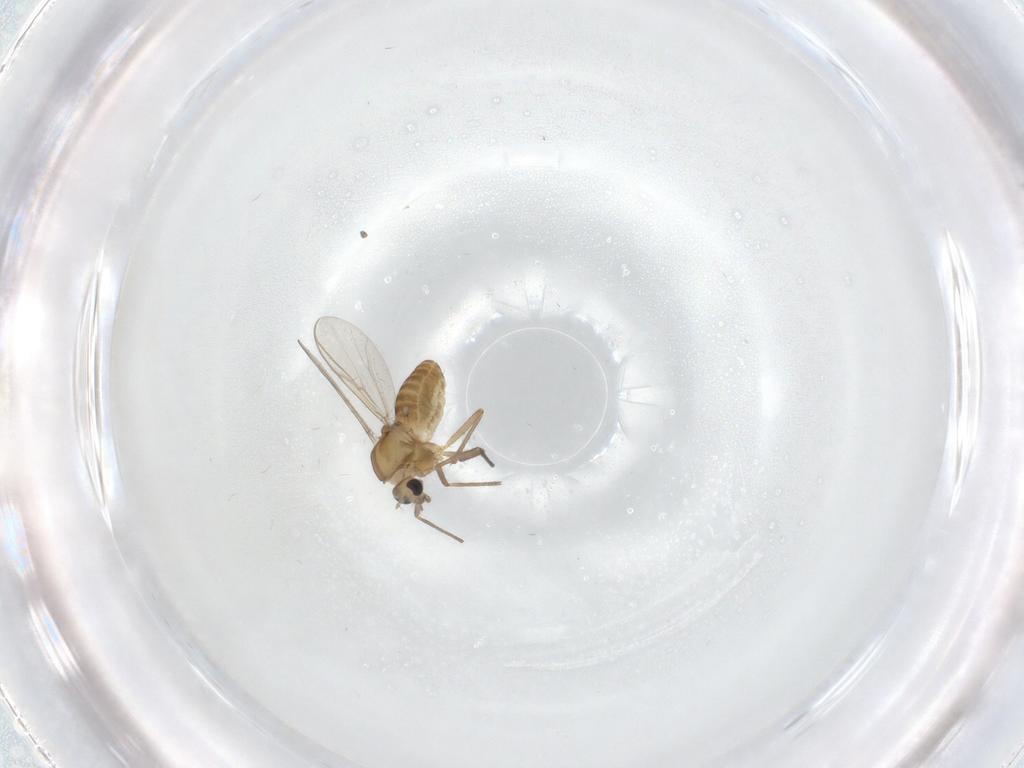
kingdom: Animalia
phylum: Arthropoda
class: Insecta
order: Diptera
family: Chironomidae
